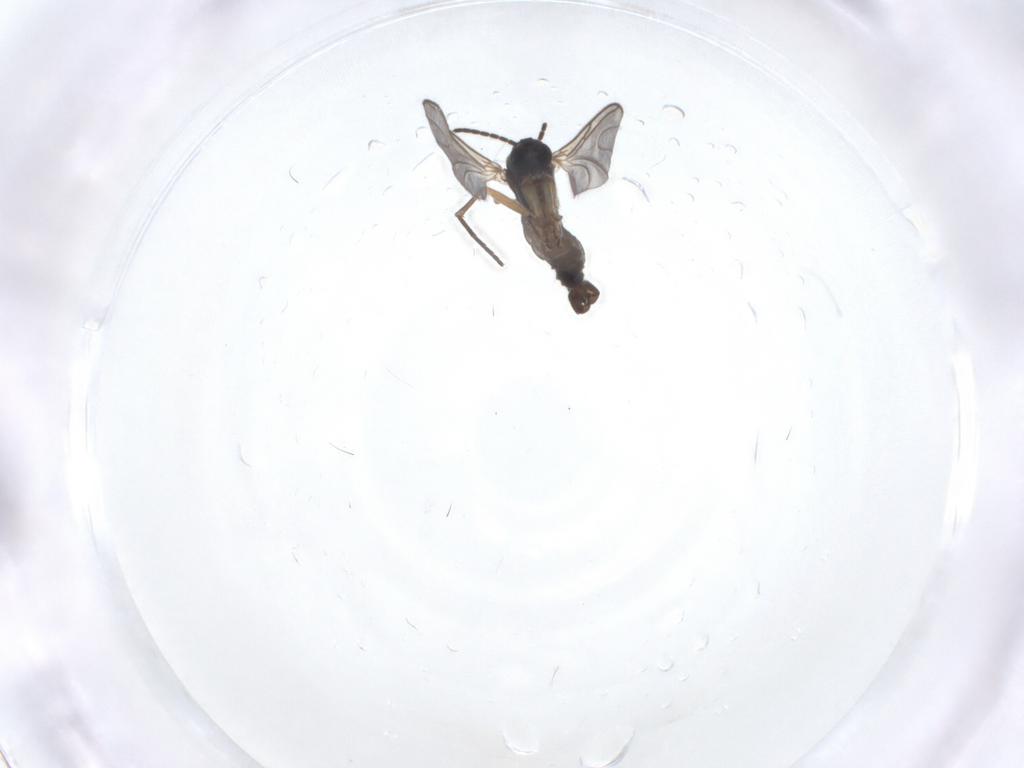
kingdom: Animalia
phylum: Arthropoda
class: Insecta
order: Diptera
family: Sciaridae
